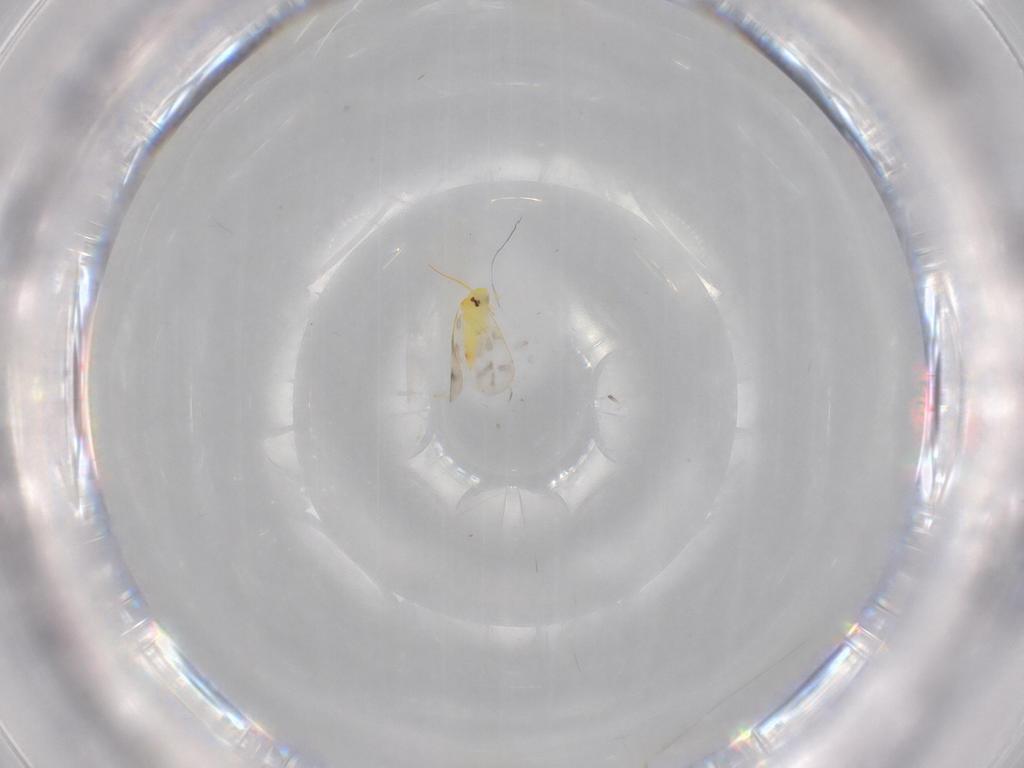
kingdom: Animalia
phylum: Arthropoda
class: Insecta
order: Hemiptera
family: Aleyrodidae
